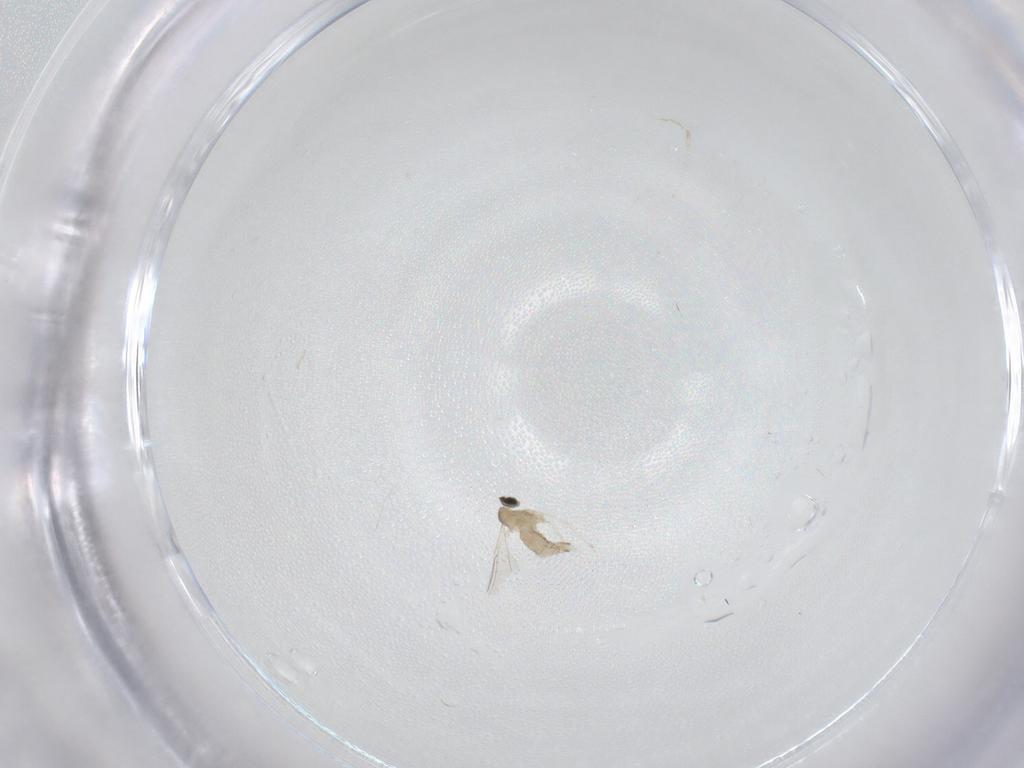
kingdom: Animalia
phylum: Arthropoda
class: Insecta
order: Diptera
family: Cecidomyiidae
